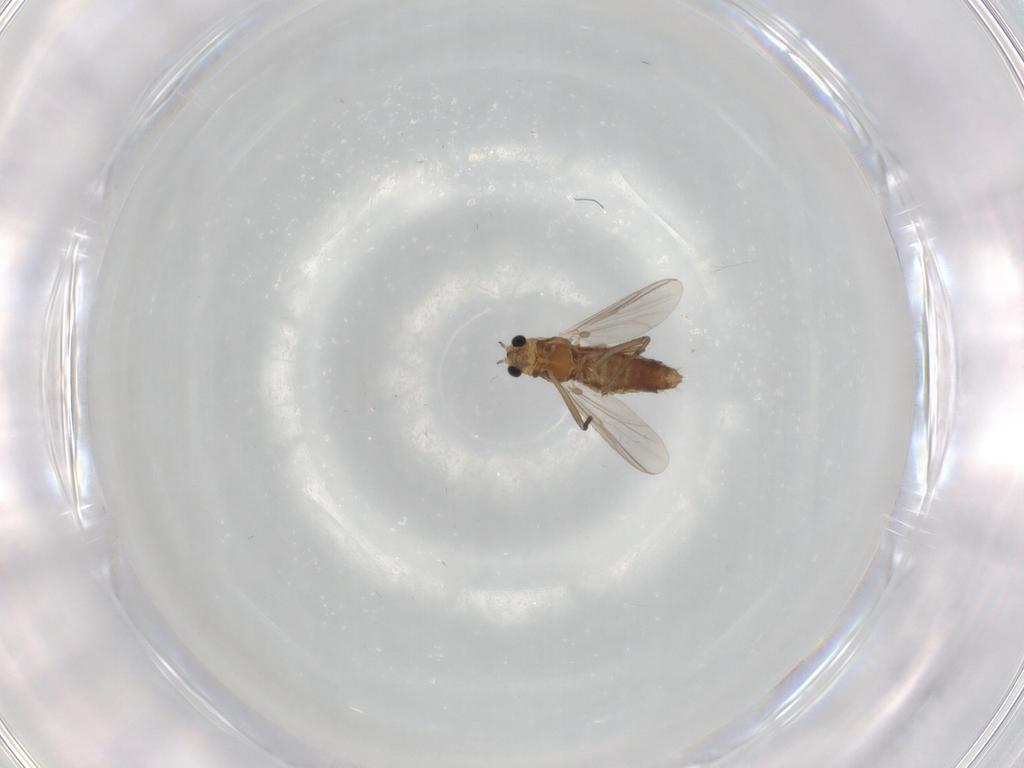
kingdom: Animalia
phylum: Arthropoda
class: Insecta
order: Diptera
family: Chironomidae
